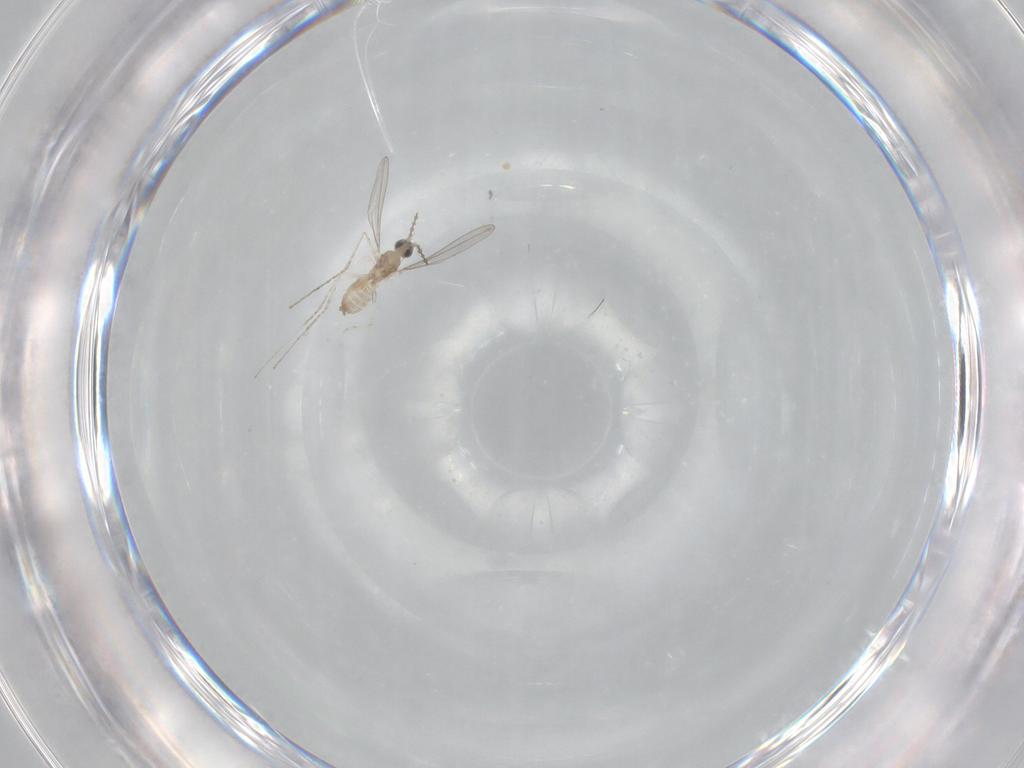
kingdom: Animalia
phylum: Arthropoda
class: Insecta
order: Diptera
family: Cecidomyiidae
